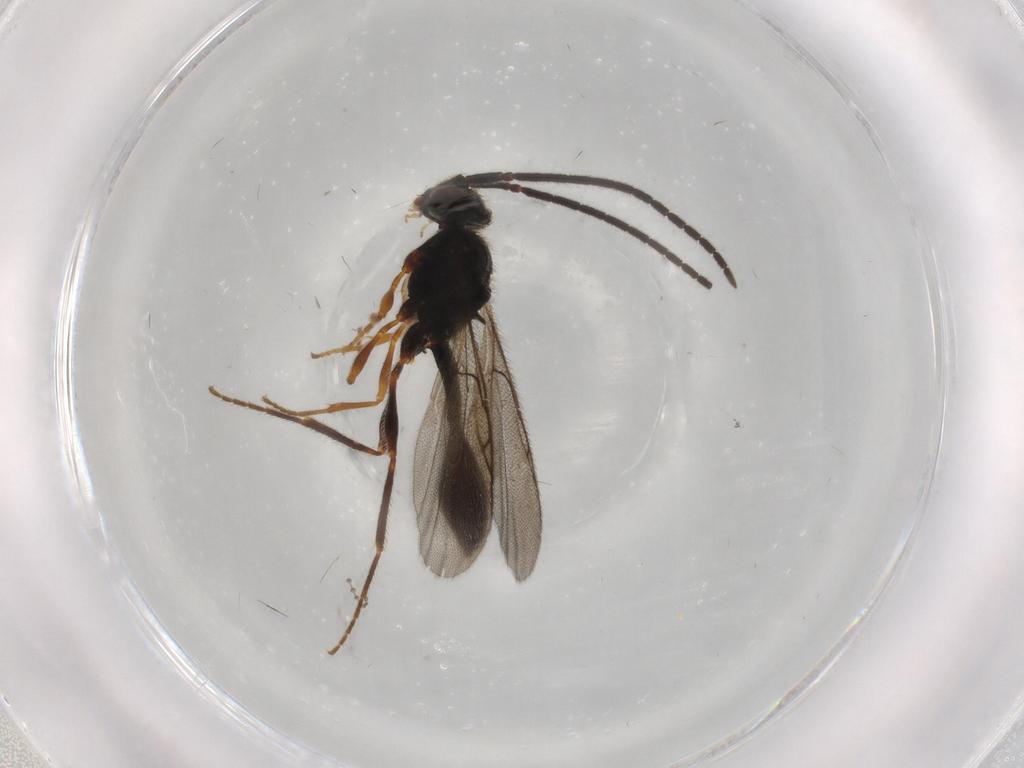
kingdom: Animalia
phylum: Arthropoda
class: Insecta
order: Hymenoptera
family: Diapriidae
